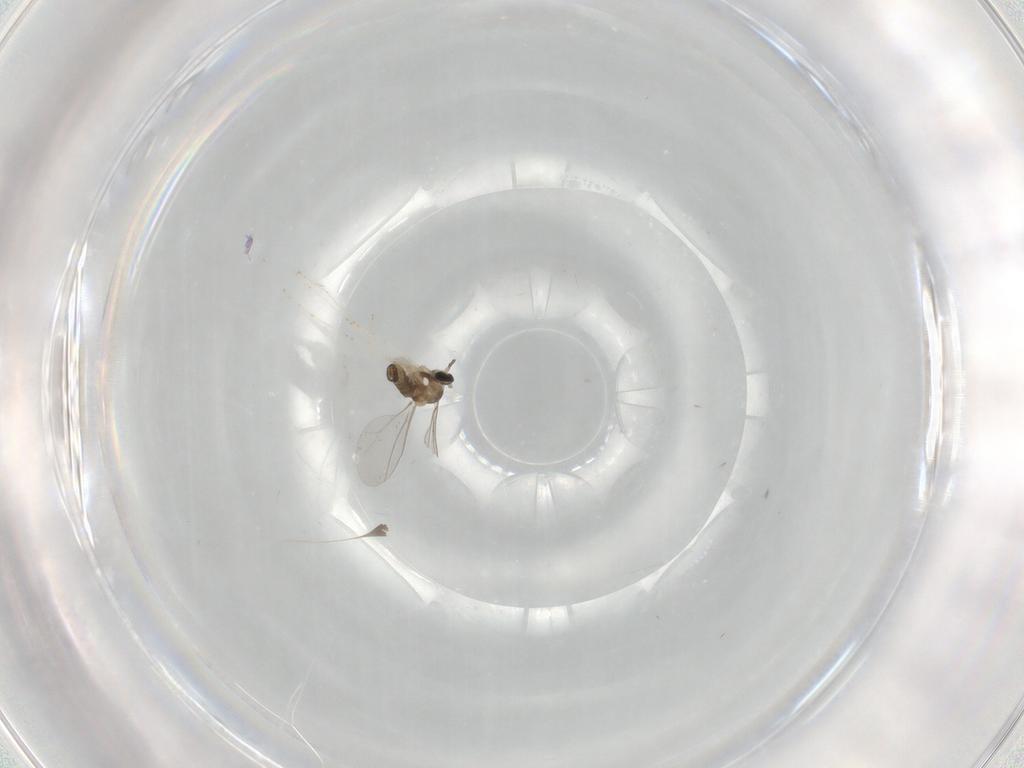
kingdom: Animalia
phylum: Arthropoda
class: Insecta
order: Diptera
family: Cecidomyiidae
